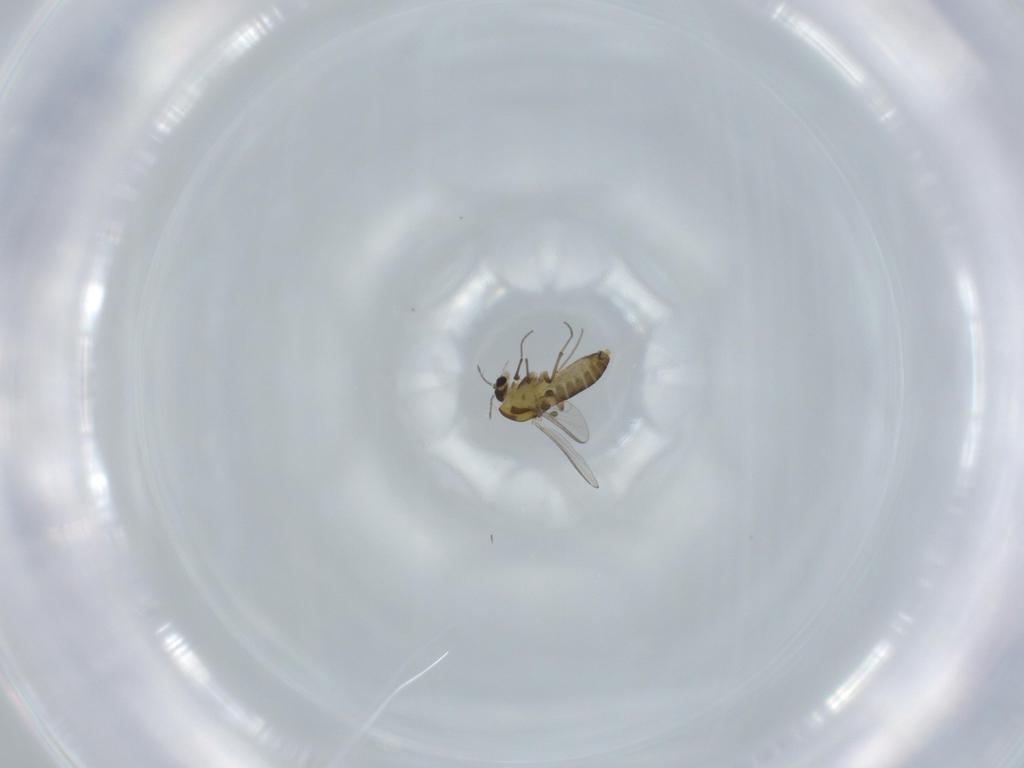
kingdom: Animalia
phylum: Arthropoda
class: Insecta
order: Diptera
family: Chironomidae
